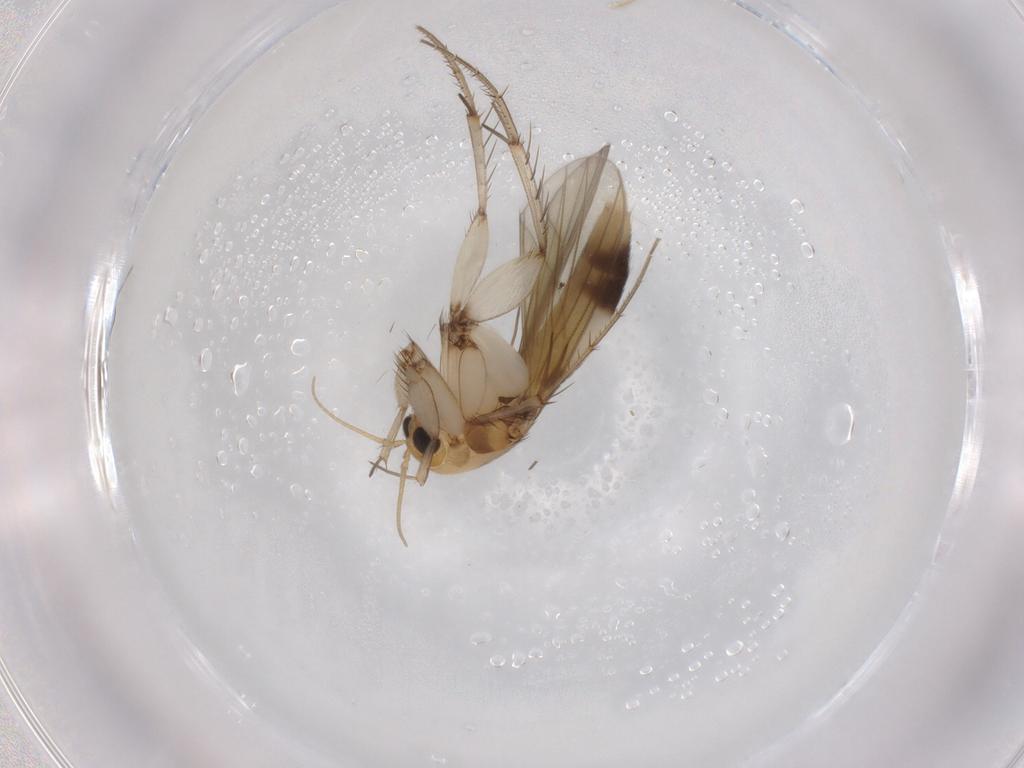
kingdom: Animalia
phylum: Arthropoda
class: Insecta
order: Diptera
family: Mycetophilidae
